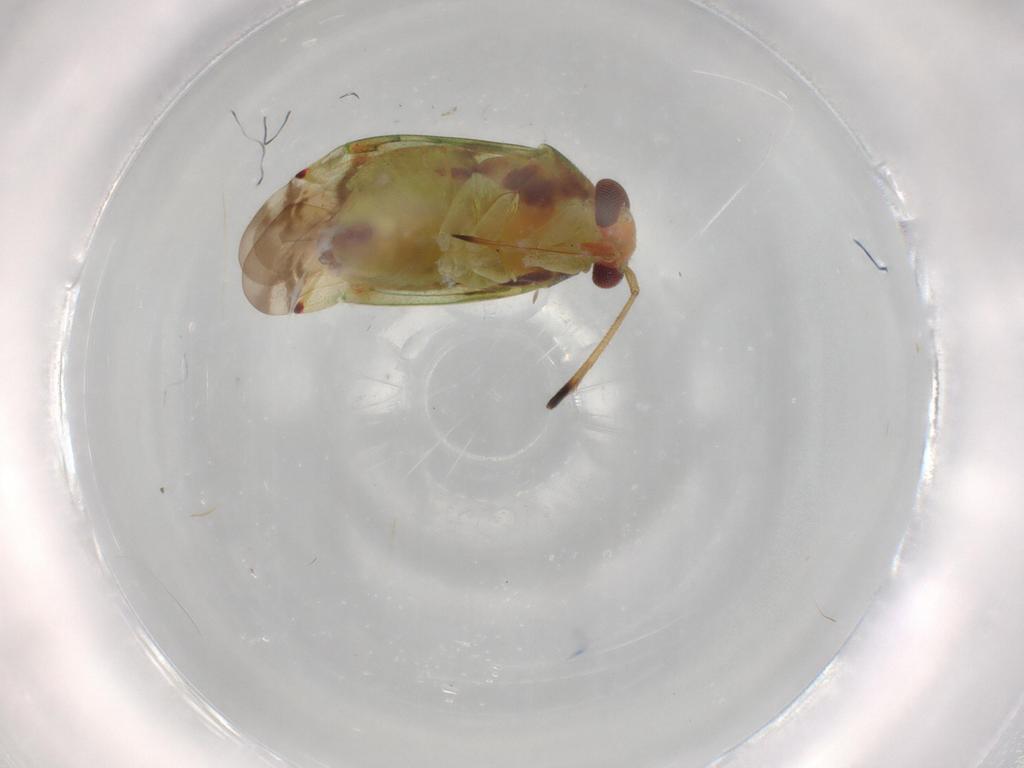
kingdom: Animalia
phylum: Arthropoda
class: Insecta
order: Hemiptera
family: Miridae
